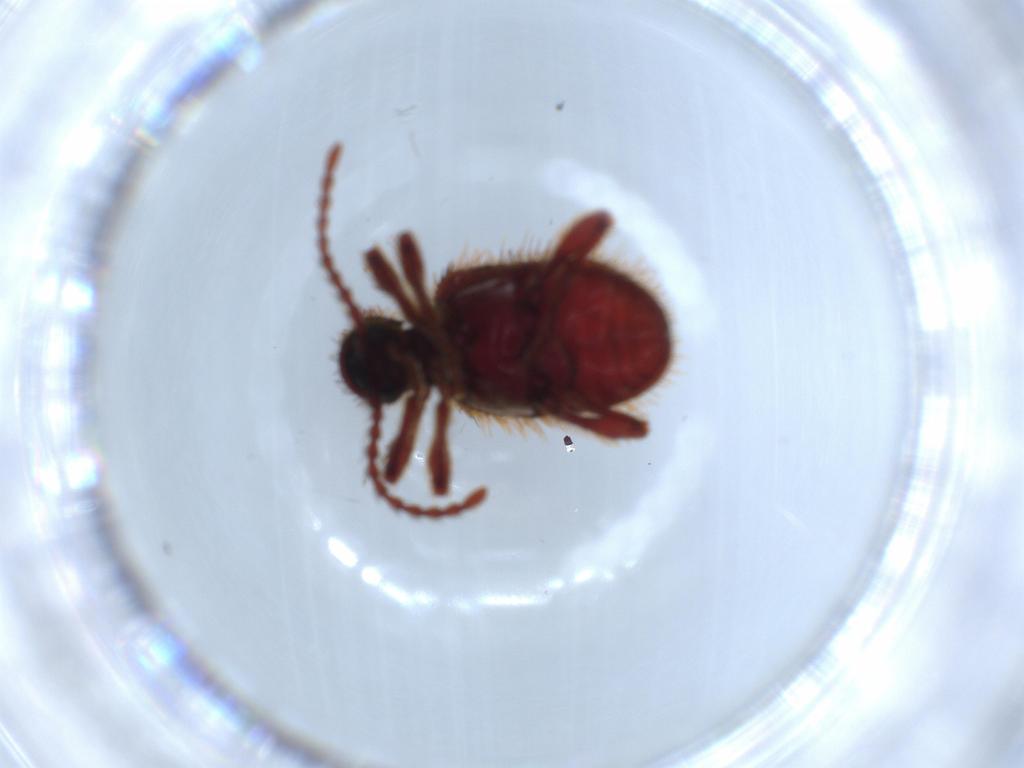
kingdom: Animalia
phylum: Arthropoda
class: Insecta
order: Coleoptera
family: Ptinidae
